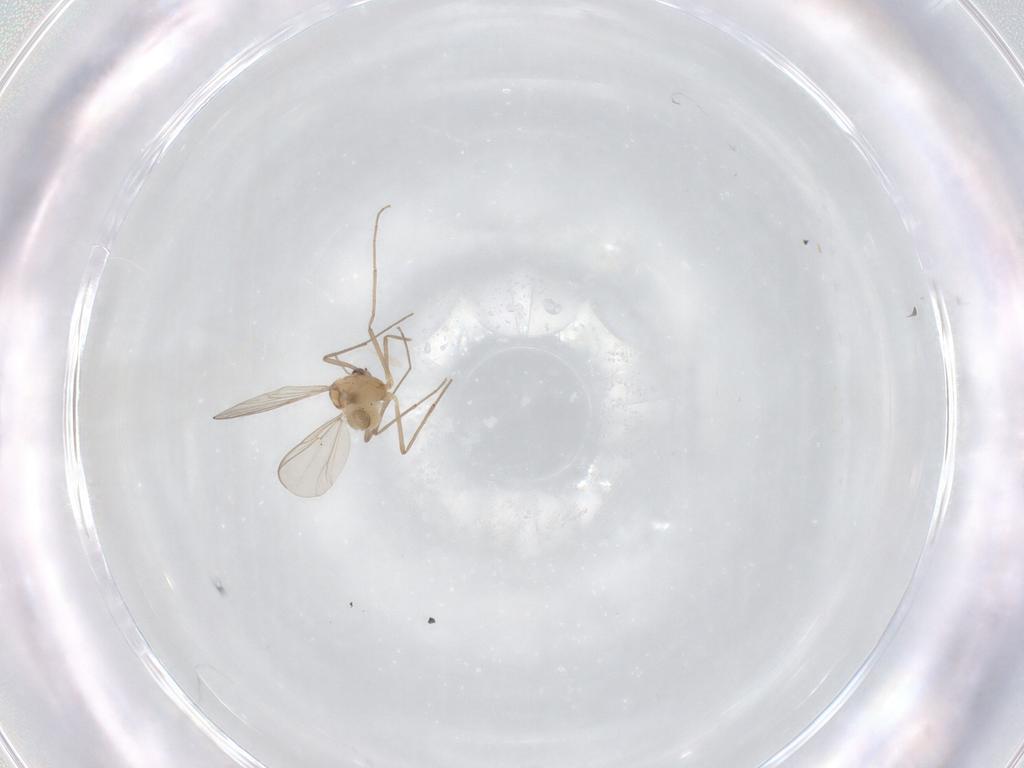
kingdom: Animalia
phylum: Arthropoda
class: Insecta
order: Diptera
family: Chironomidae
